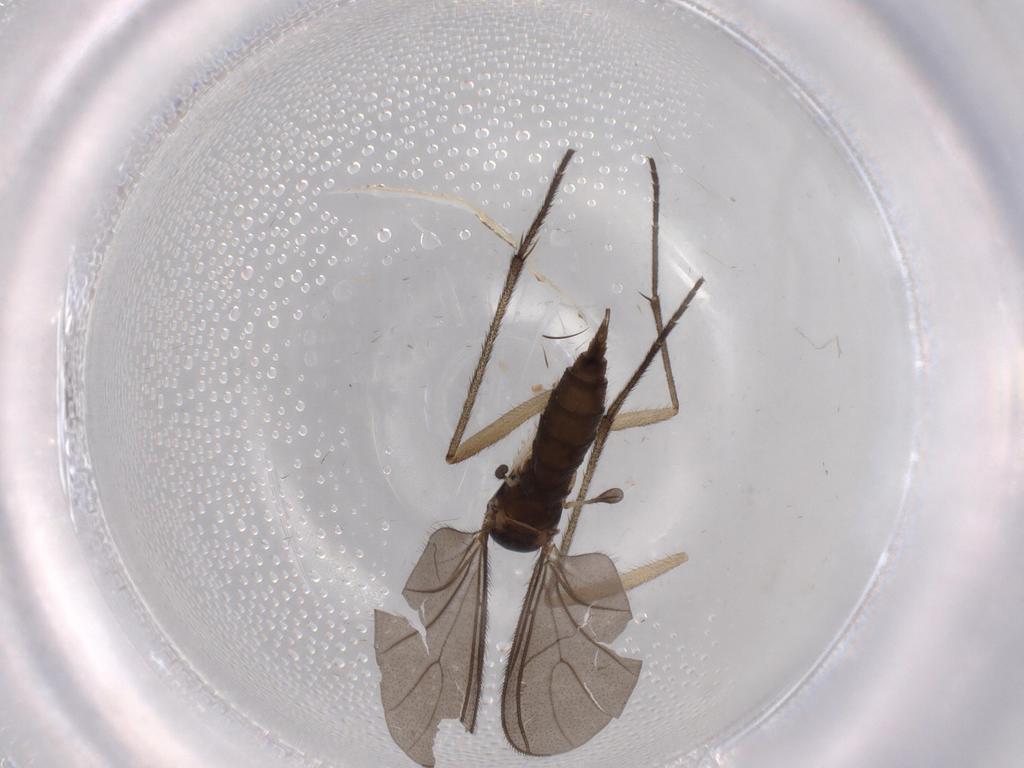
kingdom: Animalia
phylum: Arthropoda
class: Insecta
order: Diptera
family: Sciaridae
